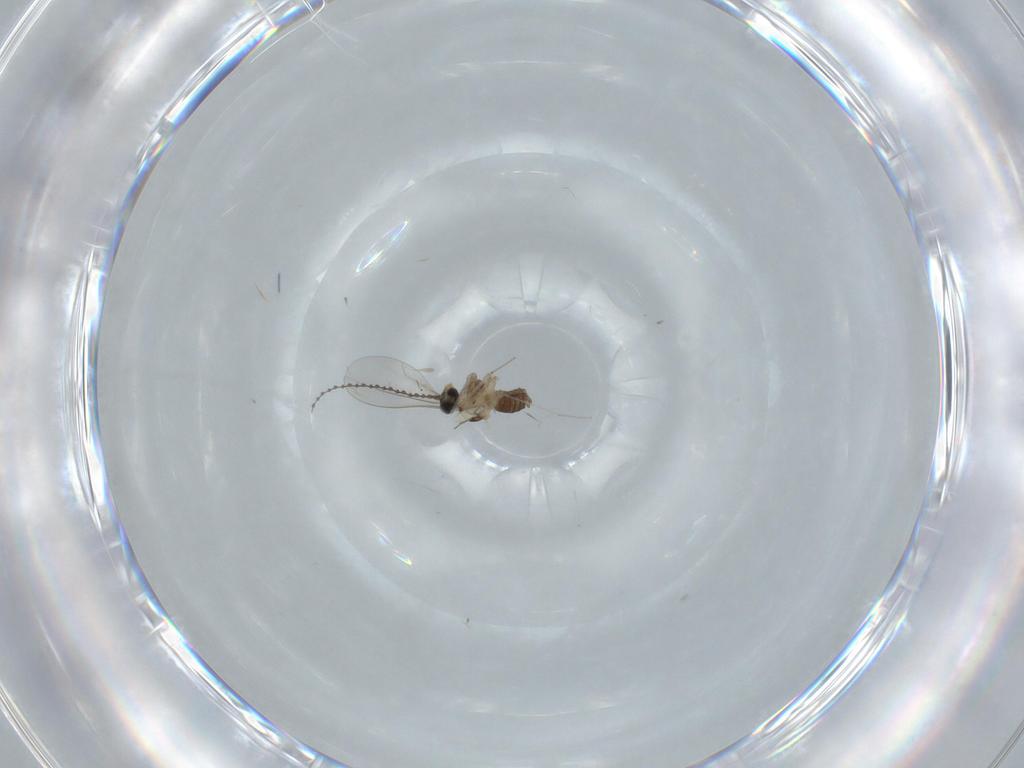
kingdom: Animalia
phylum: Arthropoda
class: Insecta
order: Diptera
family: Cecidomyiidae
